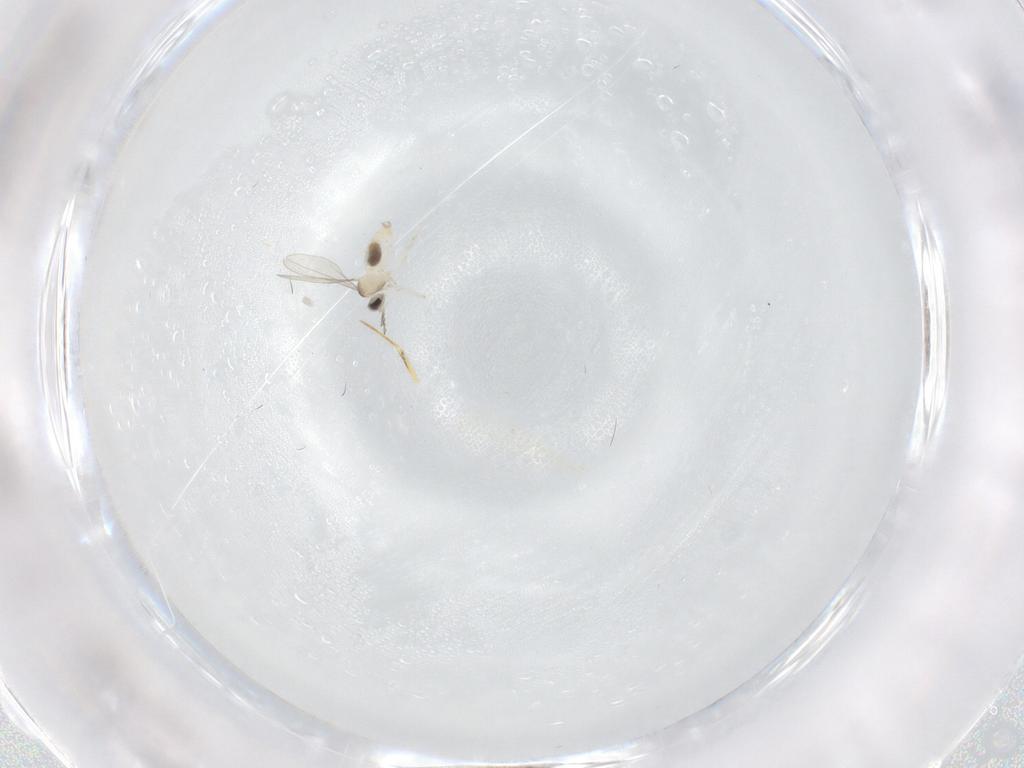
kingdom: Animalia
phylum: Arthropoda
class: Insecta
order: Diptera
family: Cecidomyiidae
